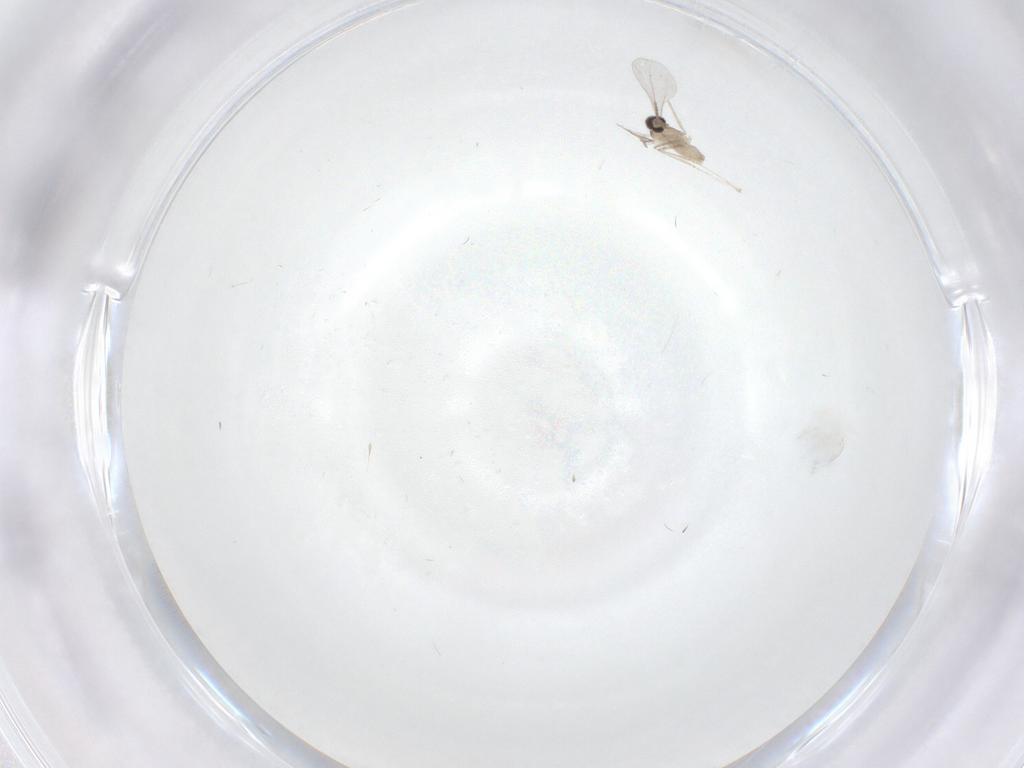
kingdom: Animalia
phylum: Arthropoda
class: Insecta
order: Diptera
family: Cecidomyiidae
